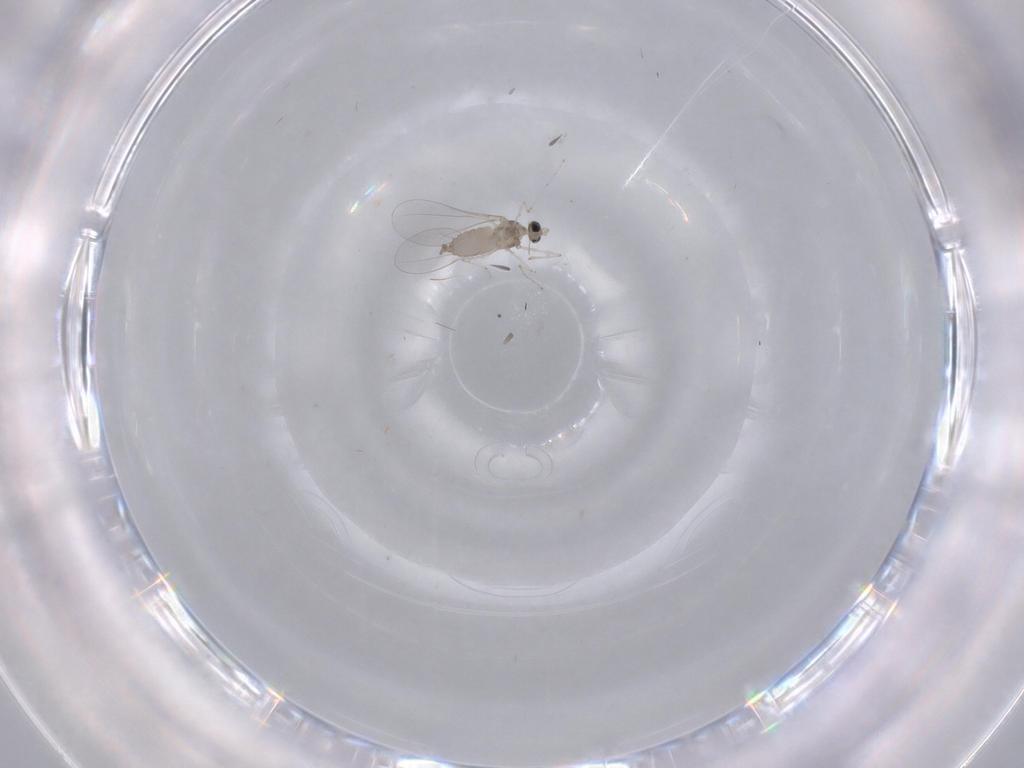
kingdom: Animalia
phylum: Arthropoda
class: Insecta
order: Diptera
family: Cecidomyiidae
